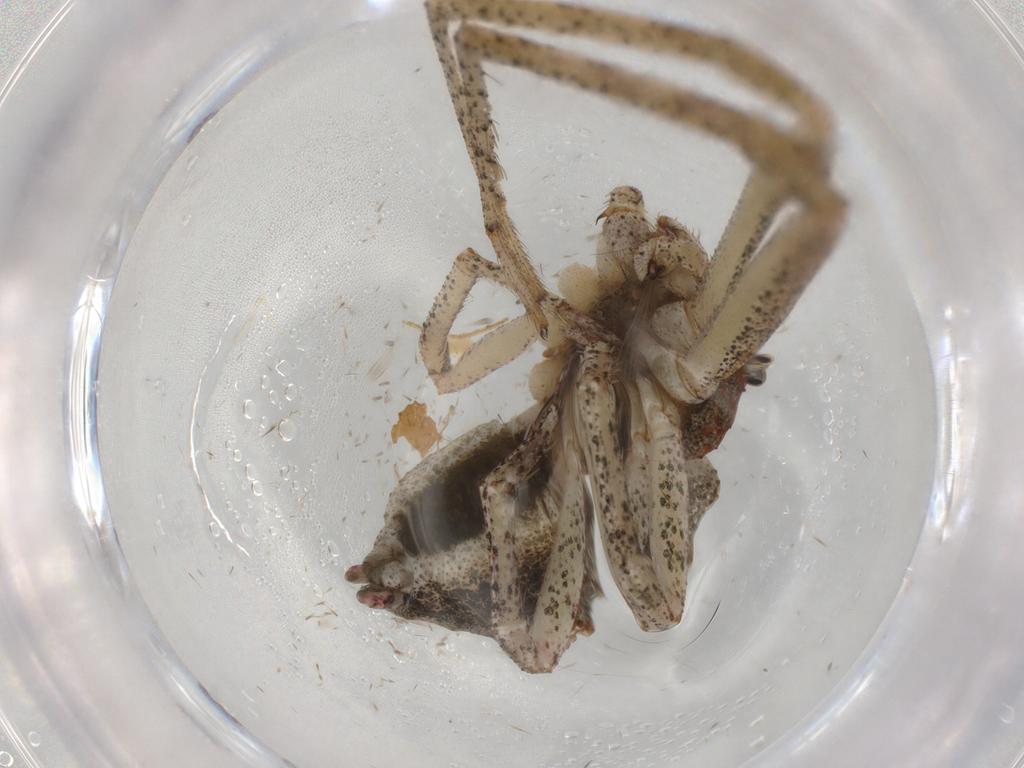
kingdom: Animalia
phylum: Arthropoda
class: Arachnida
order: Araneae
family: Thomisidae
